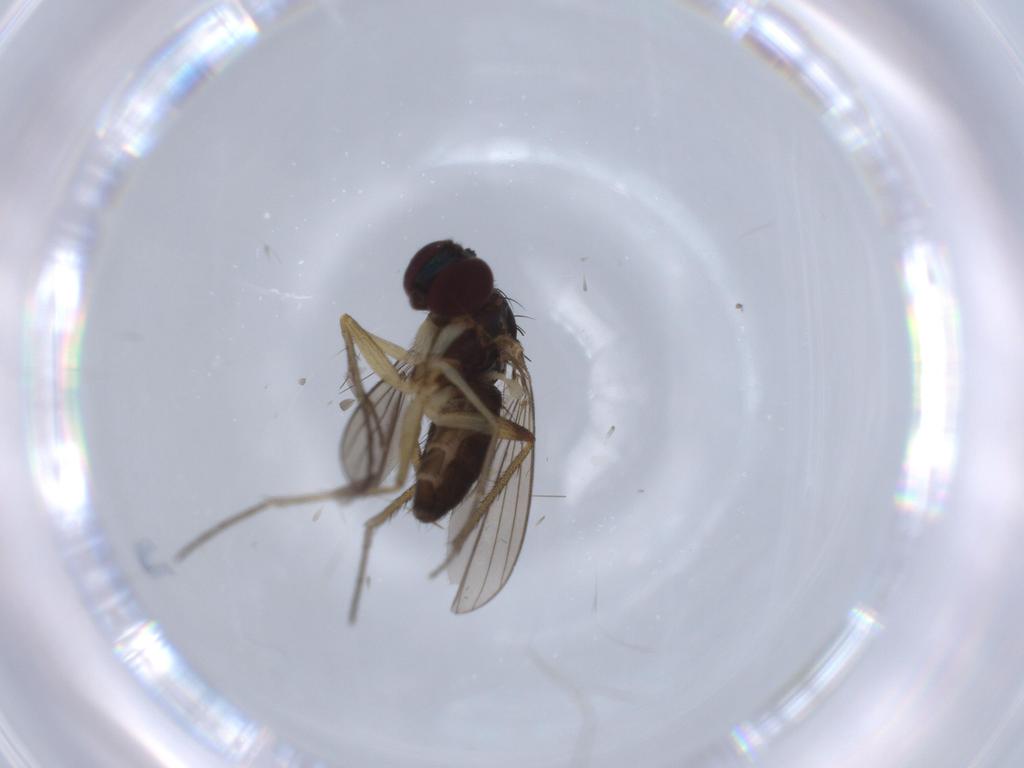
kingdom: Animalia
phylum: Arthropoda
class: Insecta
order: Diptera
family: Dolichopodidae
